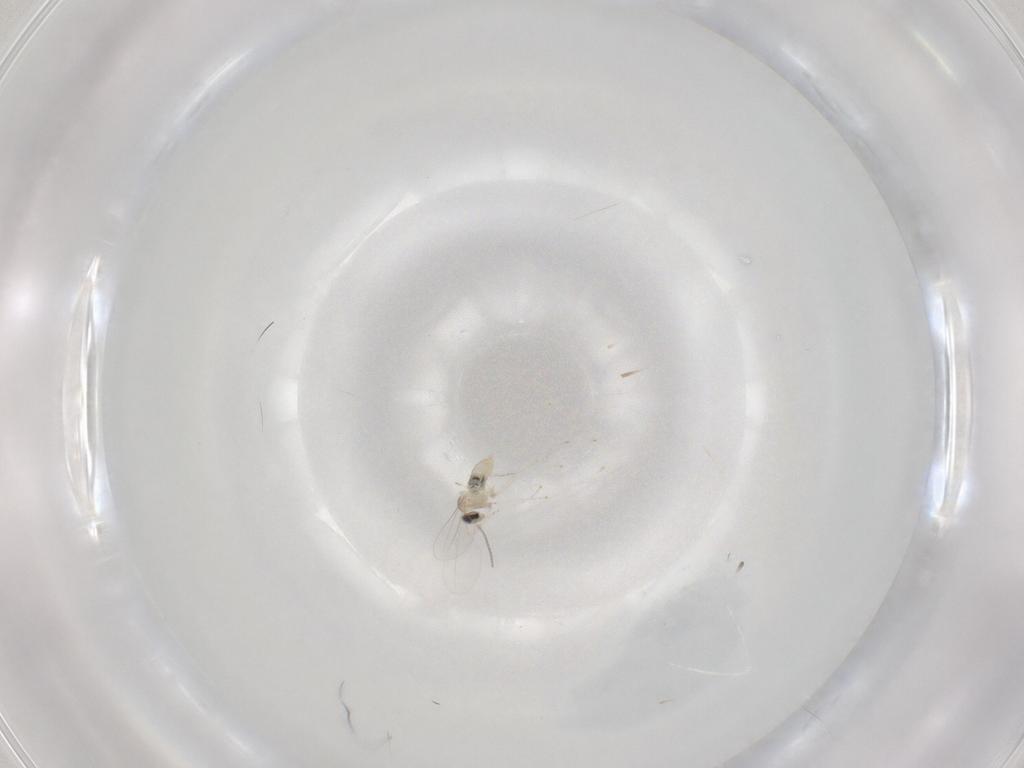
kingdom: Animalia
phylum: Arthropoda
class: Insecta
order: Diptera
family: Cecidomyiidae
